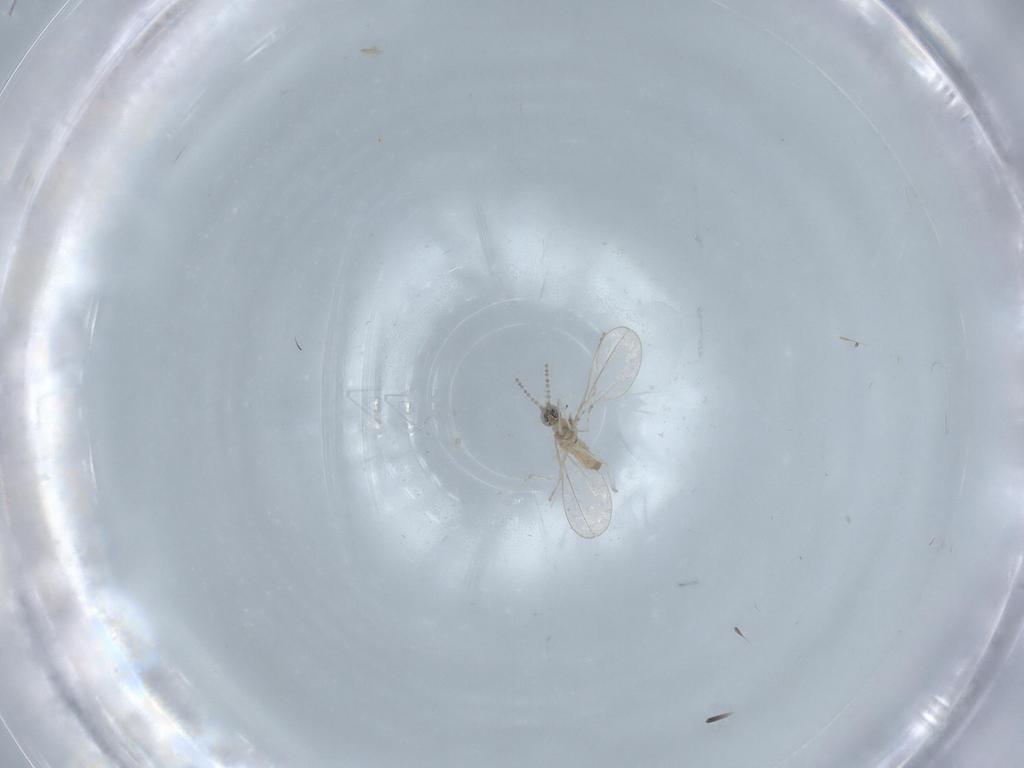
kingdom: Animalia
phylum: Arthropoda
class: Insecta
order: Diptera
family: Cecidomyiidae
